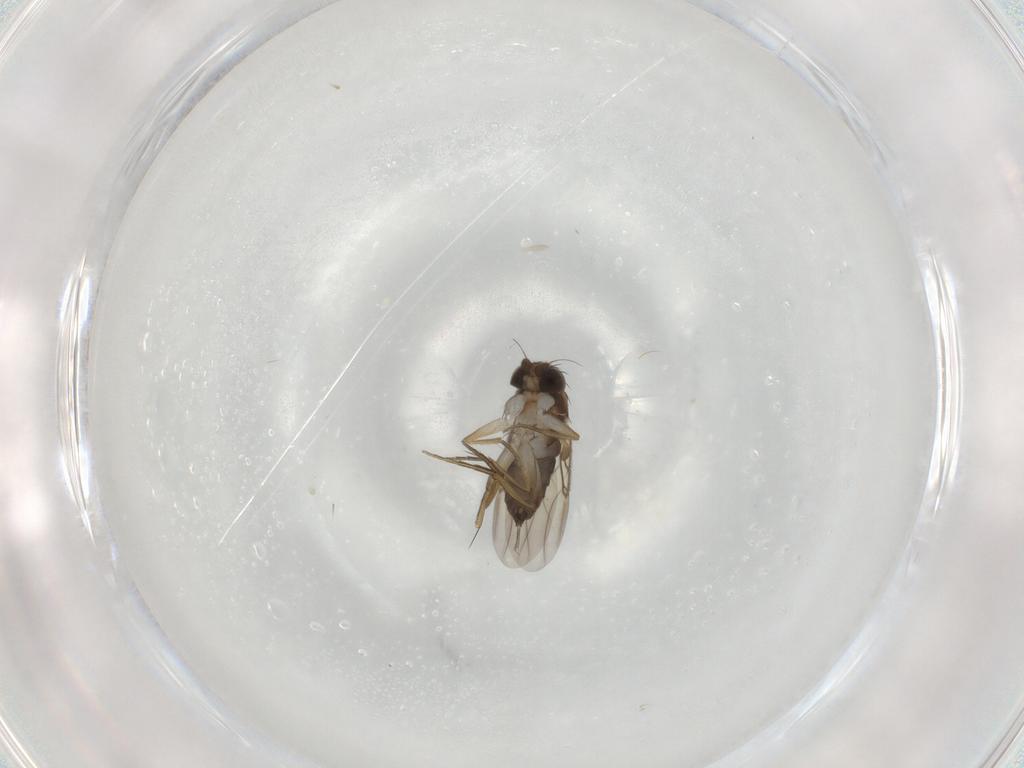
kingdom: Animalia
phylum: Arthropoda
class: Insecta
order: Diptera
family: Phoridae
